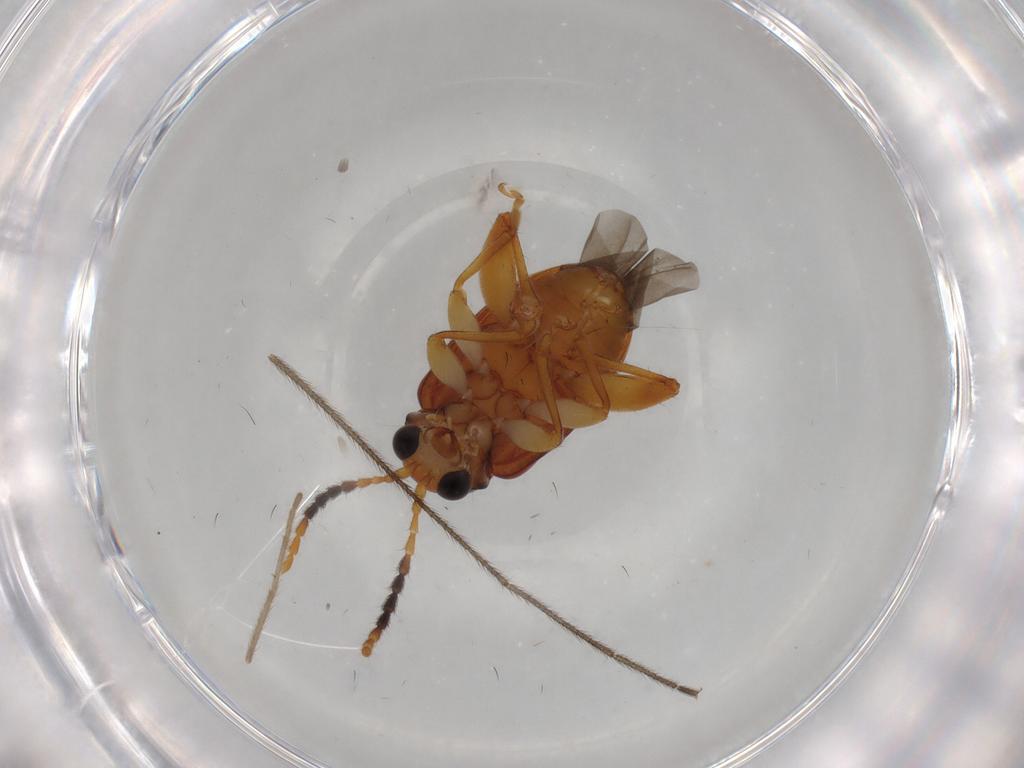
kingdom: Animalia
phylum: Arthropoda
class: Insecta
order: Coleoptera
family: Chrysomelidae
